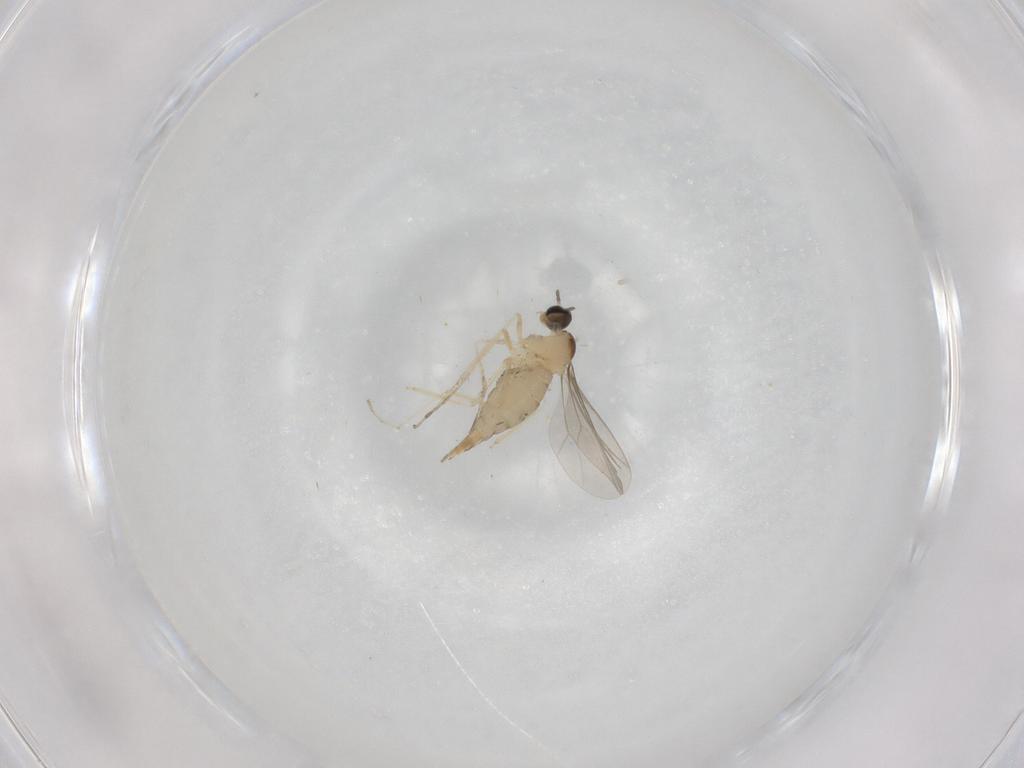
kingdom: Animalia
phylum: Arthropoda
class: Insecta
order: Diptera
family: Cecidomyiidae
